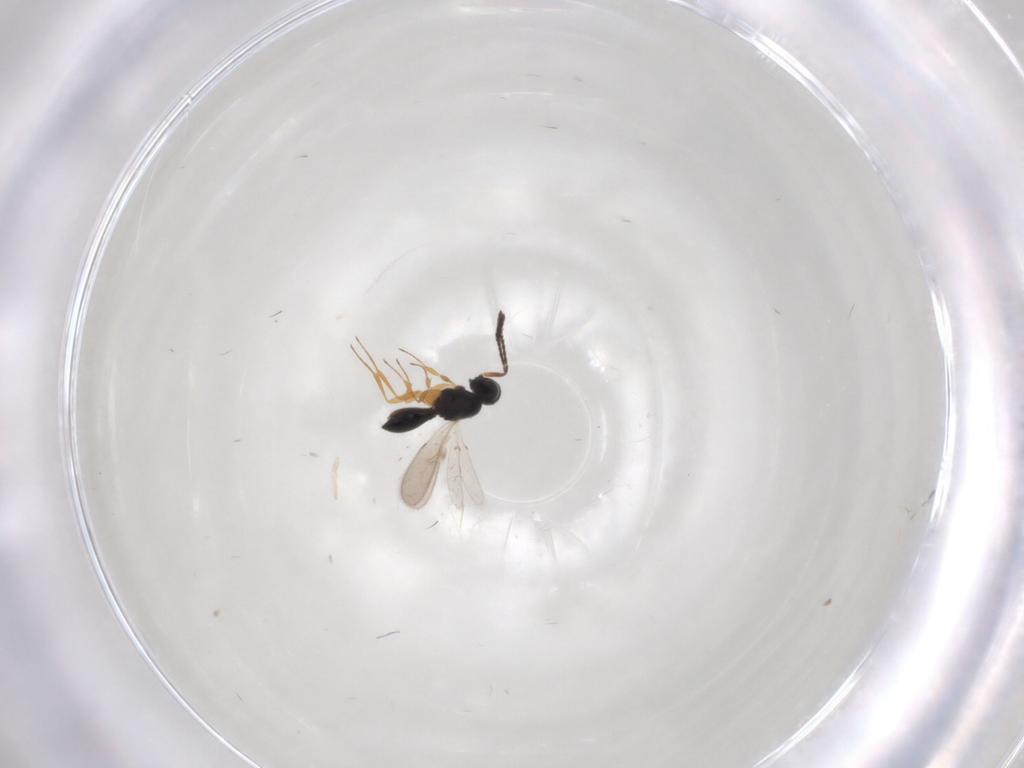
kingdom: Animalia
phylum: Arthropoda
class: Insecta
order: Hymenoptera
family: Scelionidae
